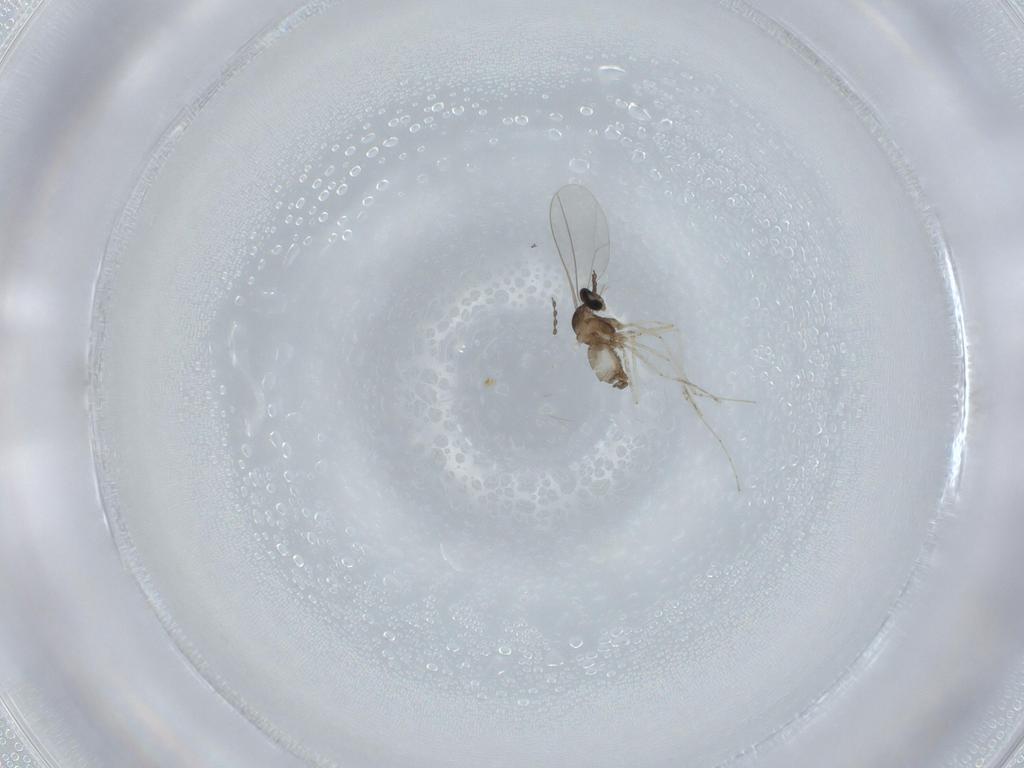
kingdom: Animalia
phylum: Arthropoda
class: Insecta
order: Diptera
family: Cecidomyiidae
